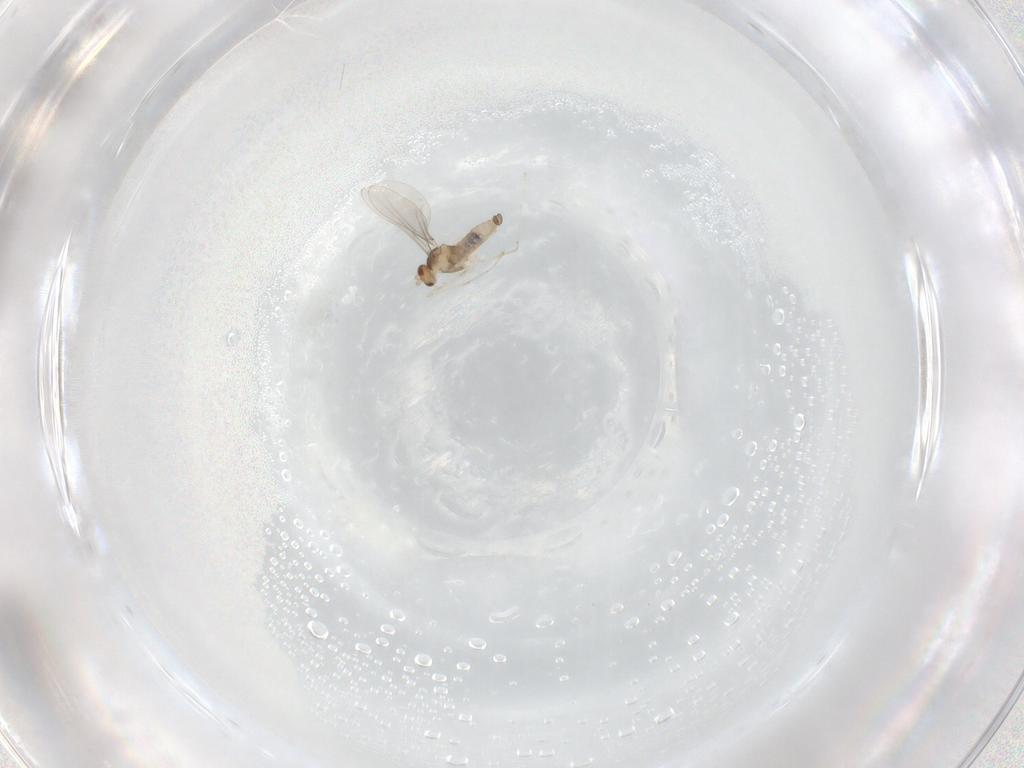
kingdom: Animalia
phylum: Arthropoda
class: Insecta
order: Diptera
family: Cecidomyiidae
